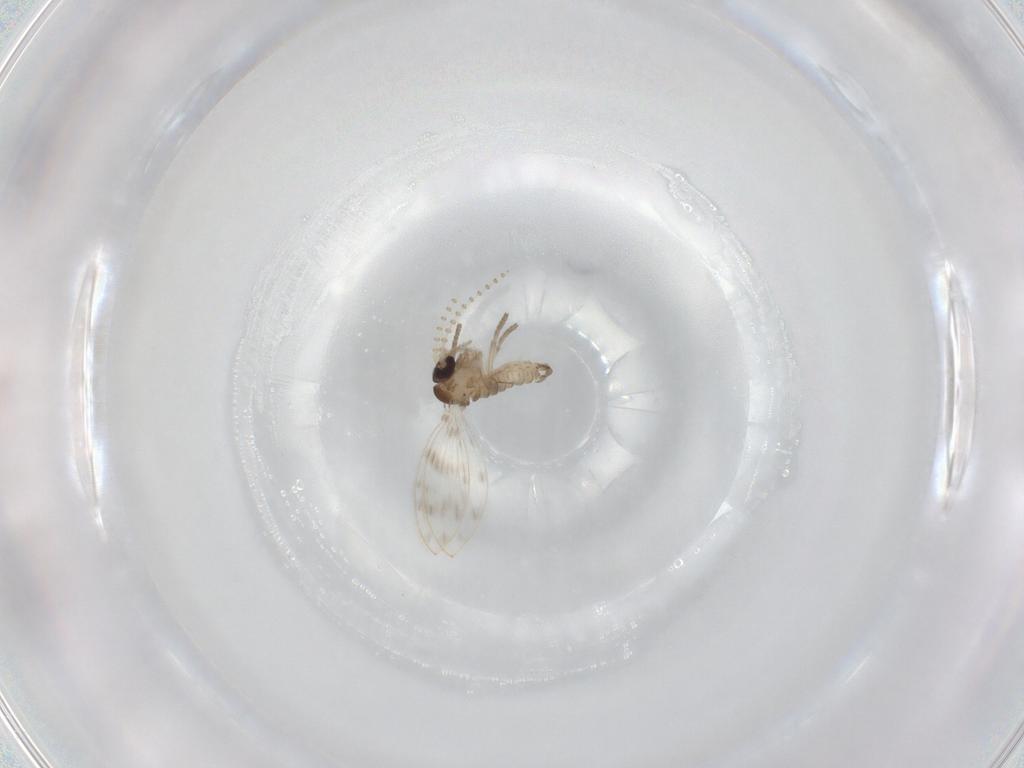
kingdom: Animalia
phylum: Arthropoda
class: Insecta
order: Diptera
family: Psychodidae
